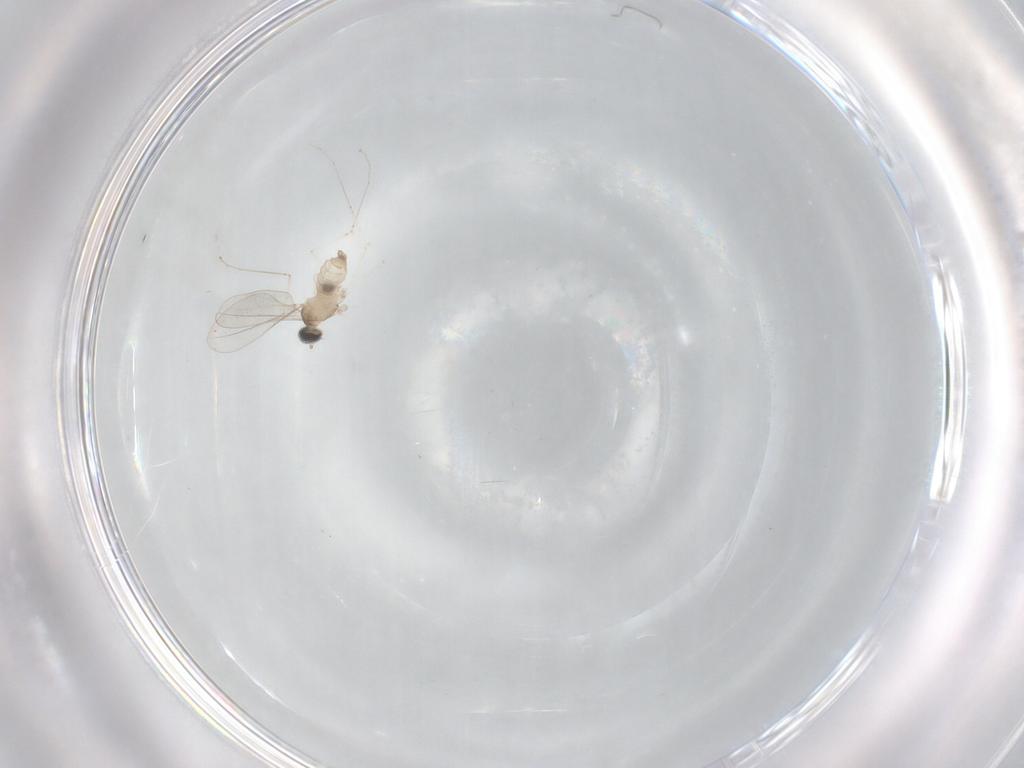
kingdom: Animalia
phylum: Arthropoda
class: Insecta
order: Diptera
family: Cecidomyiidae
